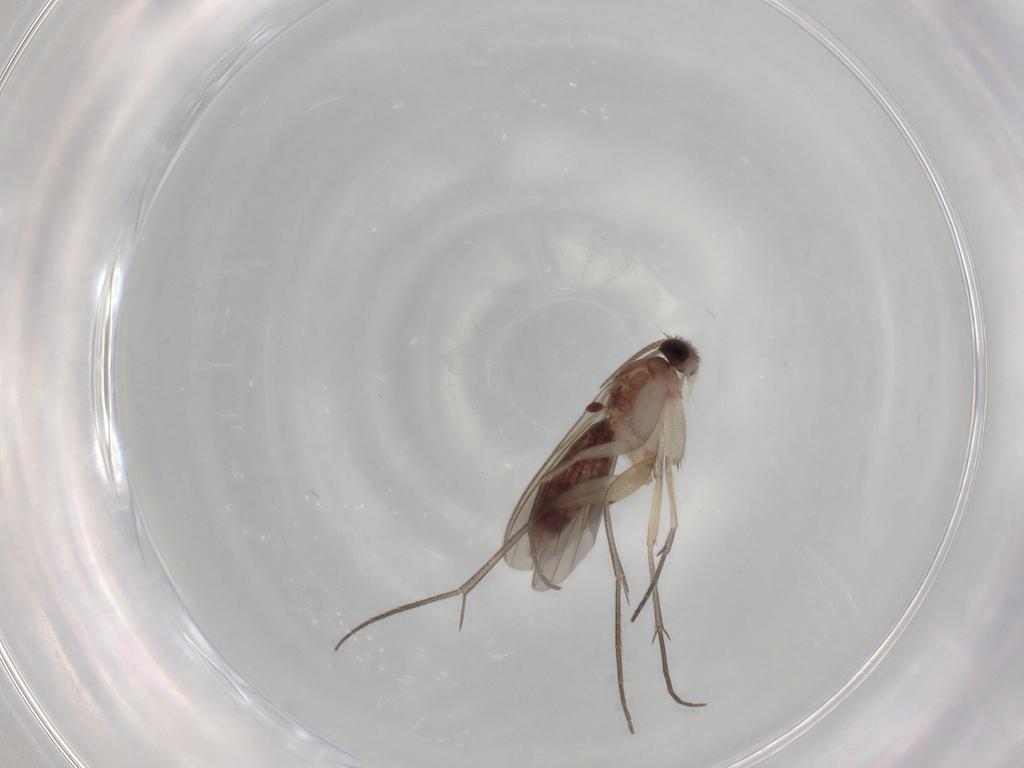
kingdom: Animalia
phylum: Arthropoda
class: Insecta
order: Diptera
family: Mycetophilidae
